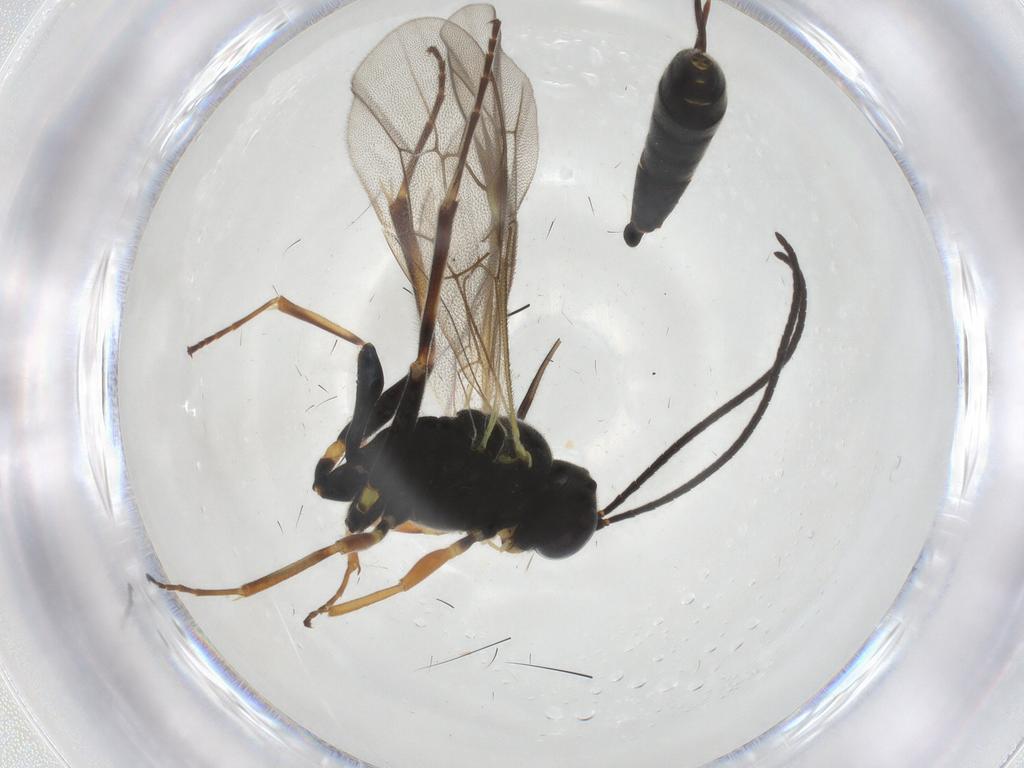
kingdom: Animalia
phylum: Arthropoda
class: Insecta
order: Hymenoptera
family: Ichneumonidae
